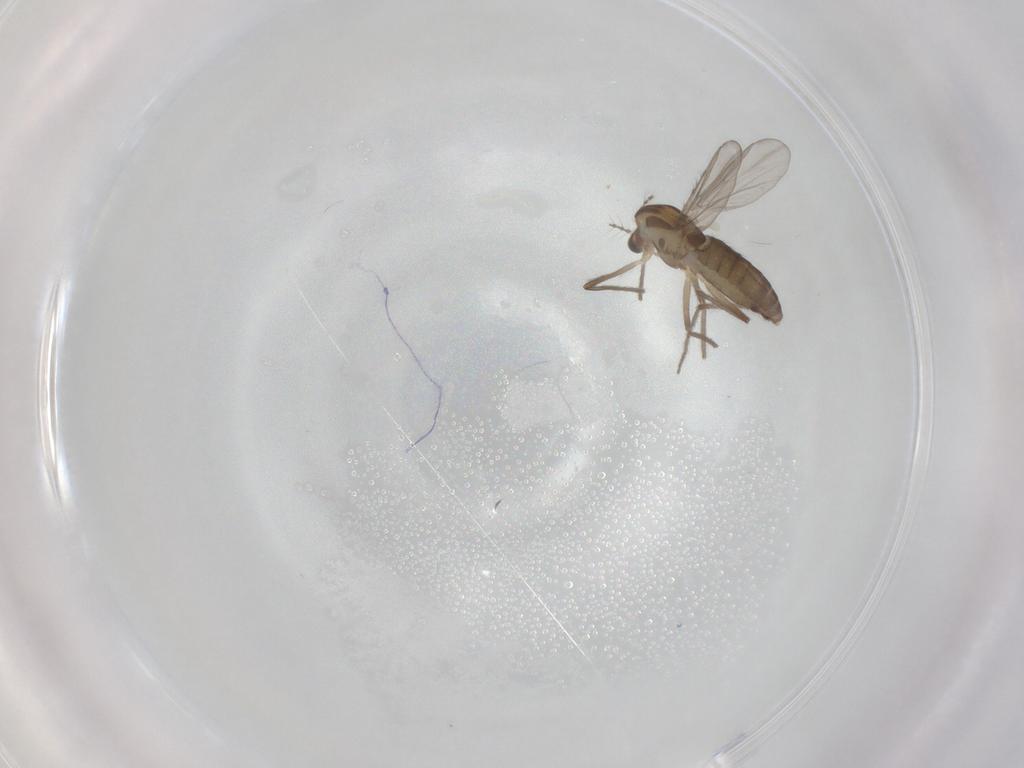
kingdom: Animalia
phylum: Arthropoda
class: Insecta
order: Diptera
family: Chironomidae
